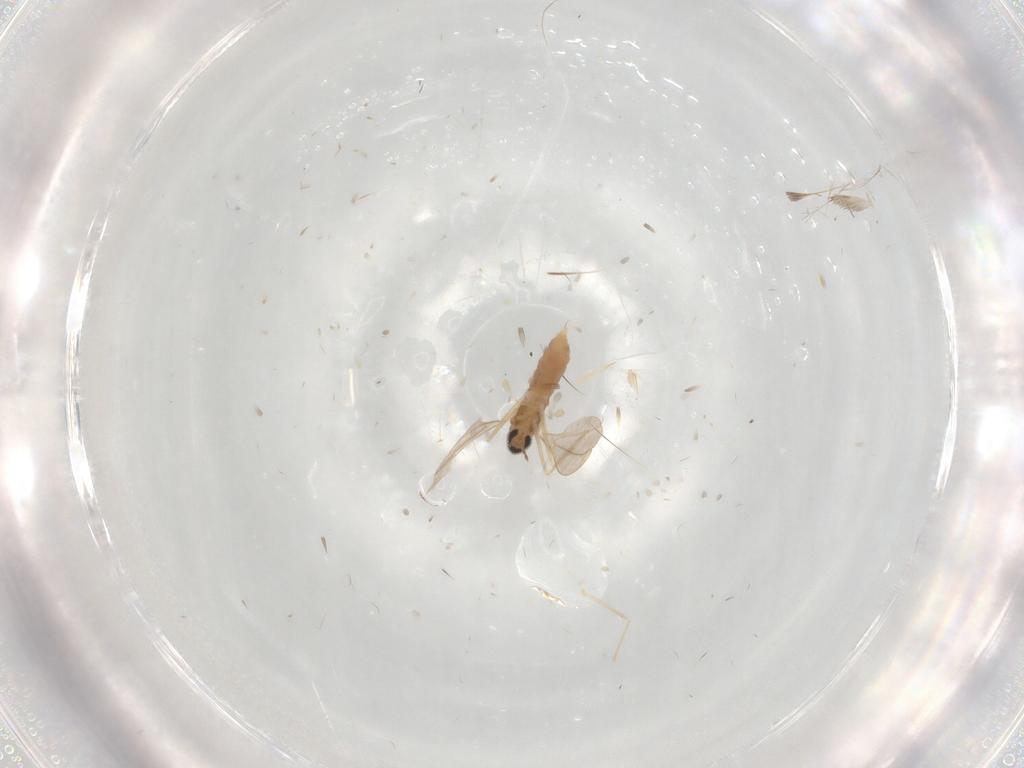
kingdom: Animalia
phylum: Arthropoda
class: Insecta
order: Diptera
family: Cecidomyiidae
